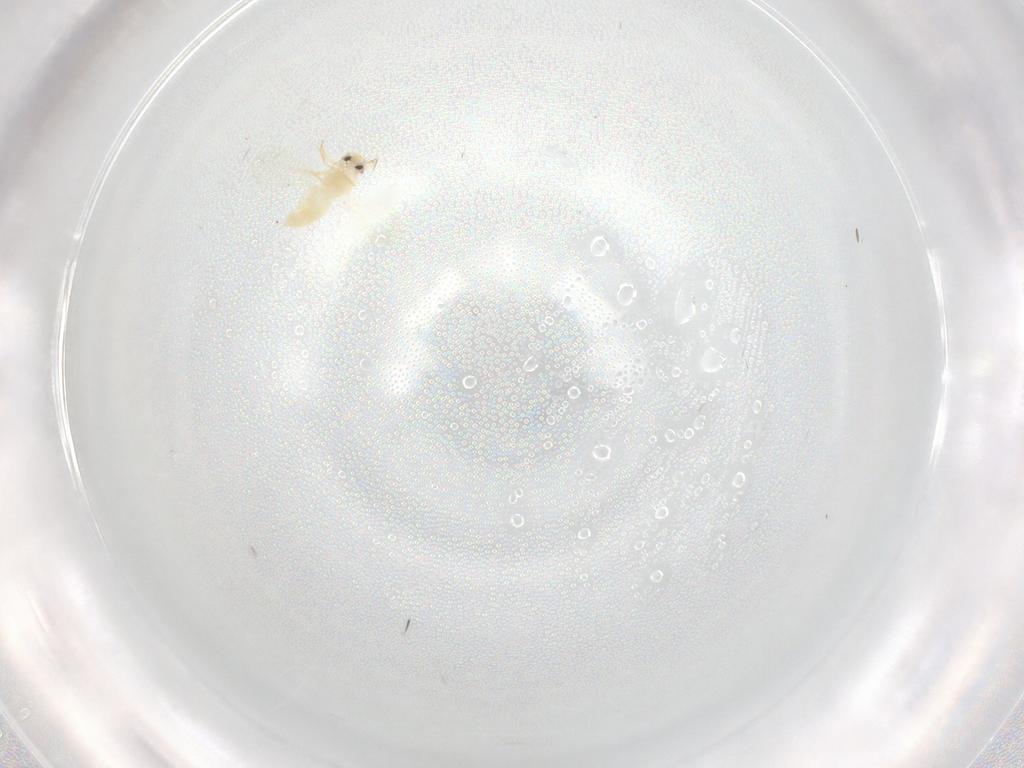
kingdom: Animalia
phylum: Arthropoda
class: Insecta
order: Hemiptera
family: Aleyrodidae
